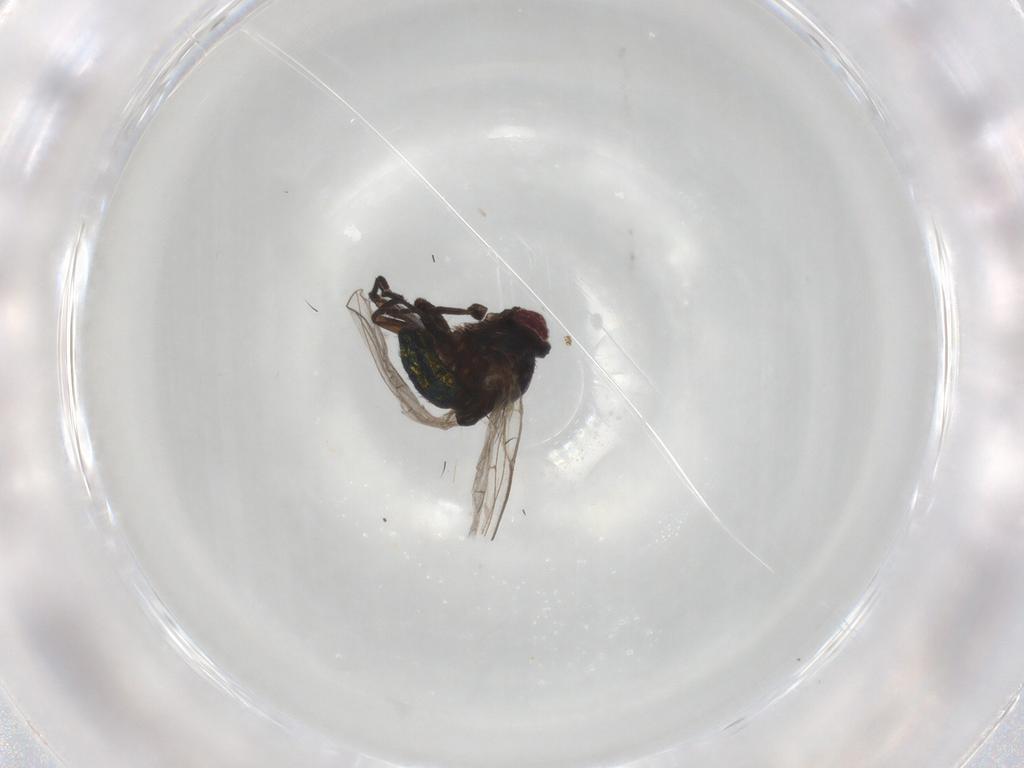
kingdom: Animalia
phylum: Arthropoda
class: Insecta
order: Diptera
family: Agromyzidae
